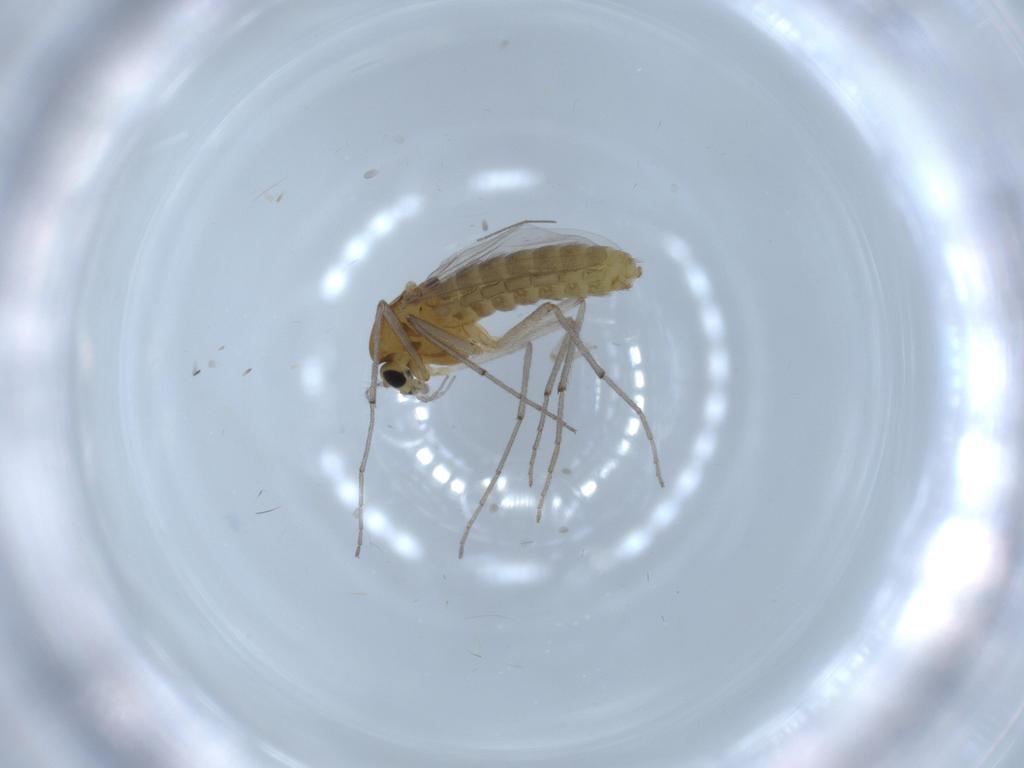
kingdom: Animalia
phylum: Arthropoda
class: Insecta
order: Diptera
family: Chironomidae
